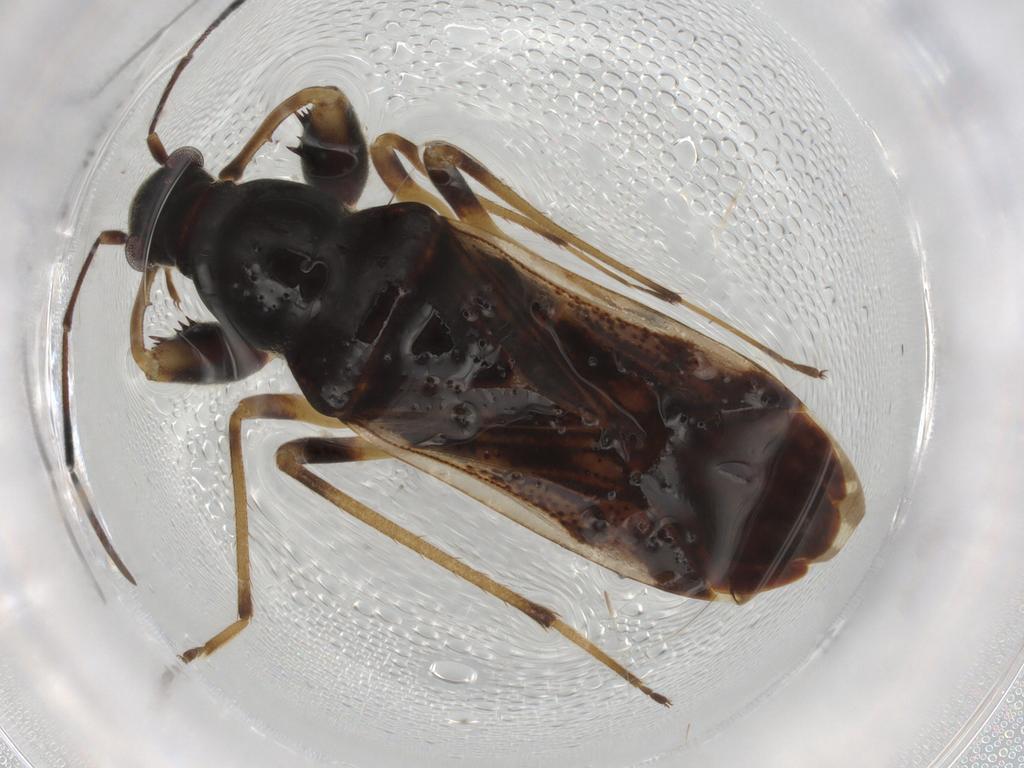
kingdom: Animalia
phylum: Arthropoda
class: Insecta
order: Hemiptera
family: Rhyparochromidae
